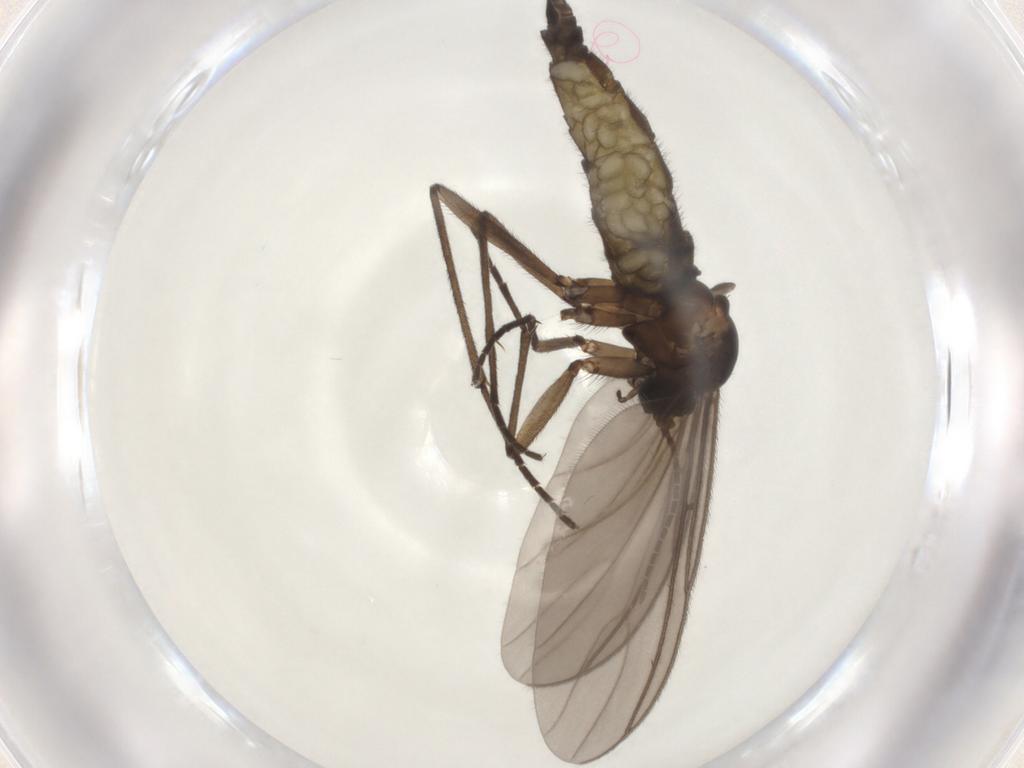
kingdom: Animalia
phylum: Arthropoda
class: Insecta
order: Diptera
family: Sciaridae
